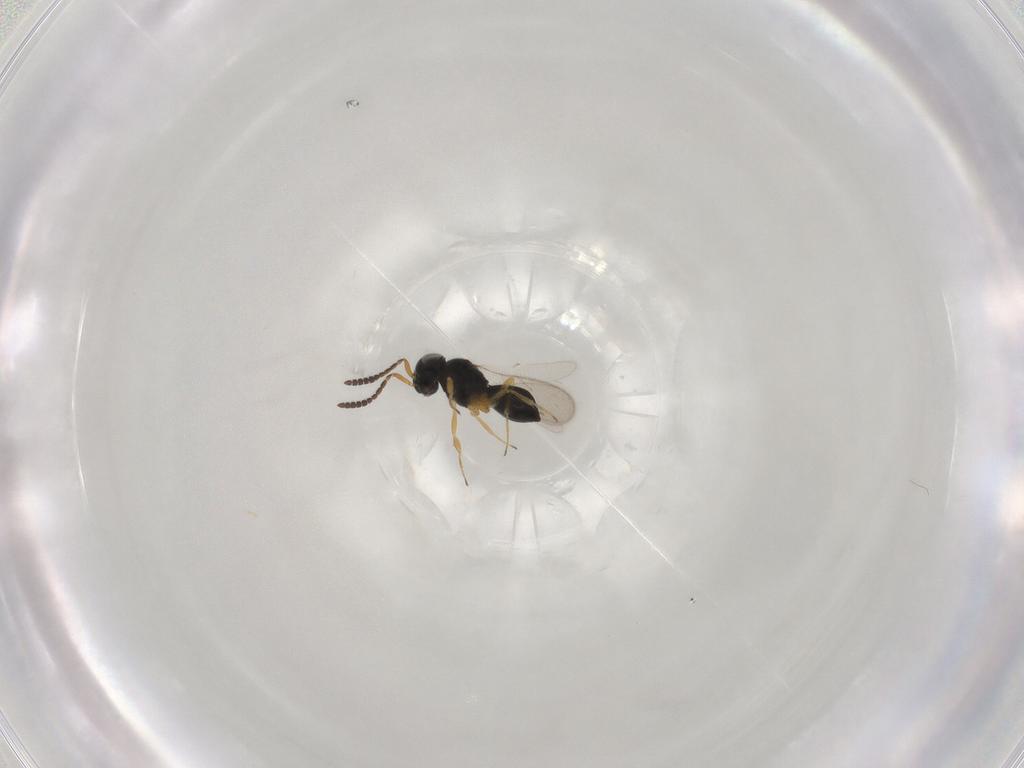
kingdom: Animalia
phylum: Arthropoda
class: Insecta
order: Hymenoptera
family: Scelionidae
